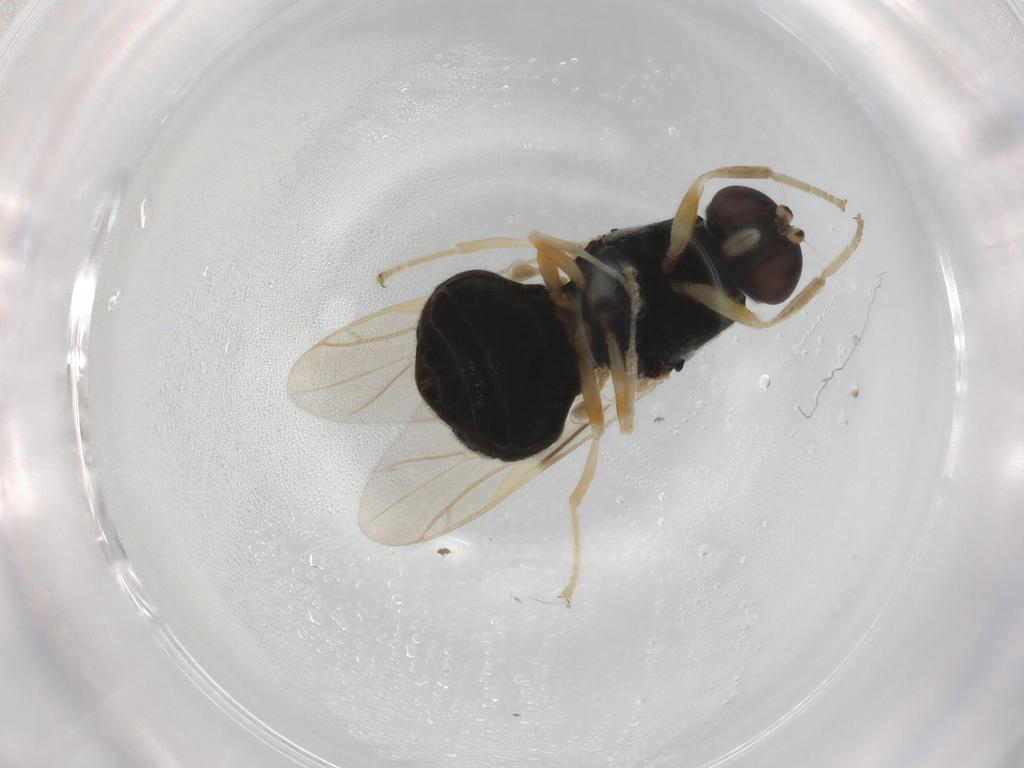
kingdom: Animalia
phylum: Arthropoda
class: Insecta
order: Diptera
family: Stratiomyidae
